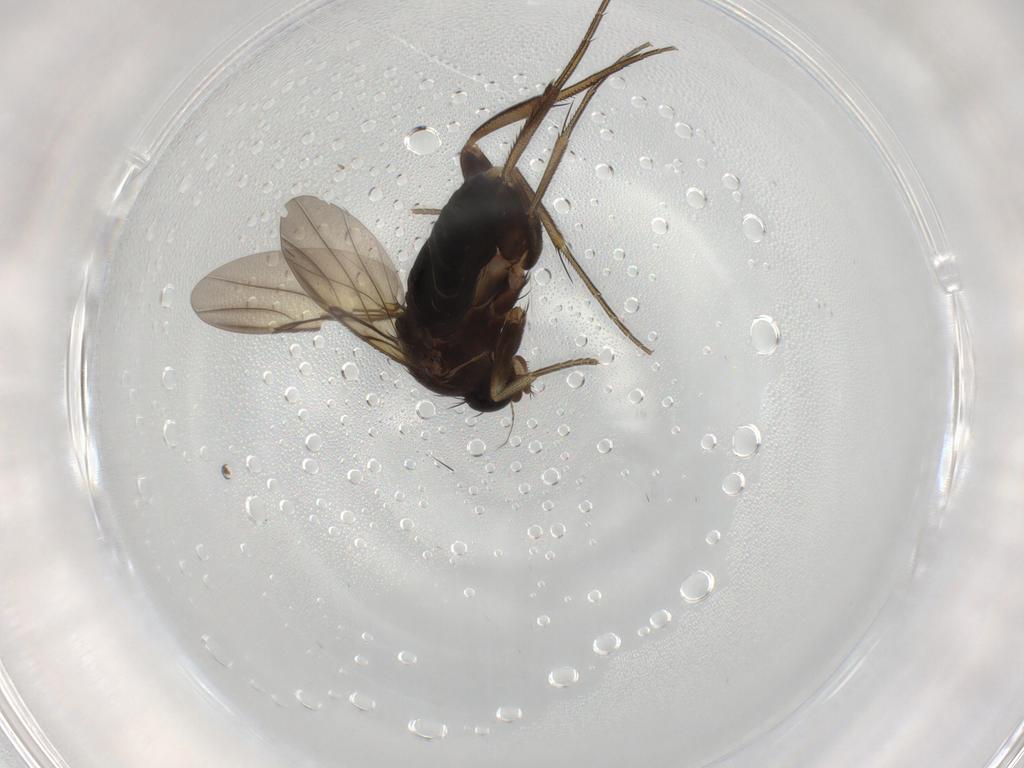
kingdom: Animalia
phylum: Arthropoda
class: Insecta
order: Diptera
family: Phoridae
